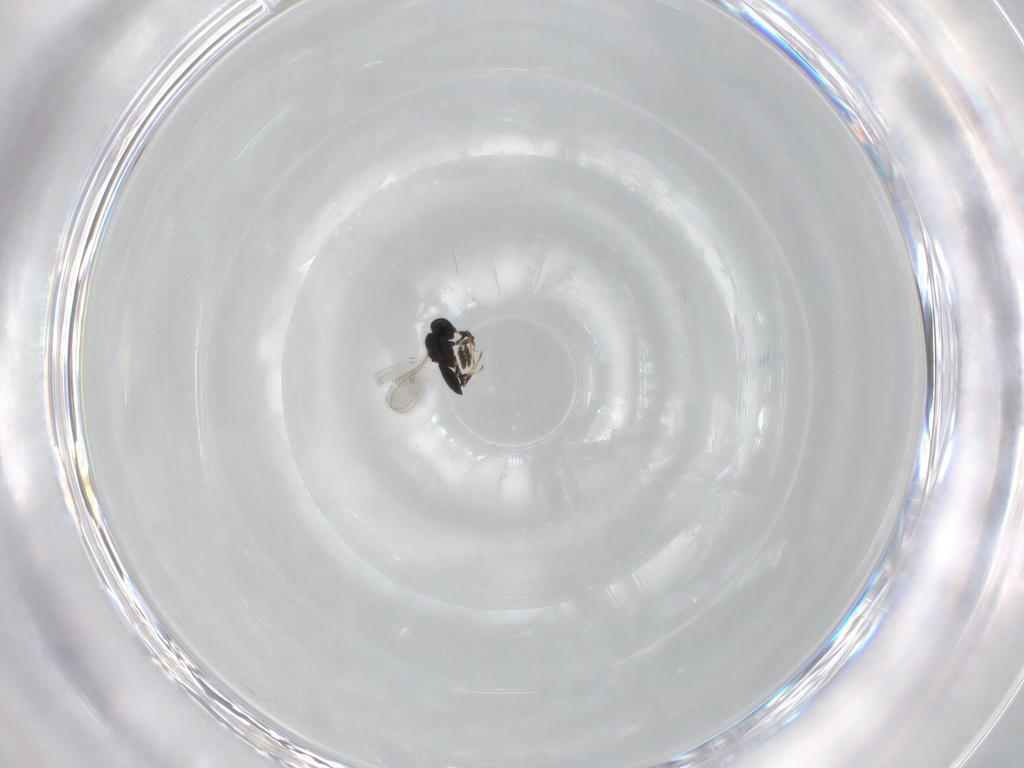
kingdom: Animalia
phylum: Arthropoda
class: Insecta
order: Hymenoptera
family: Scelionidae
